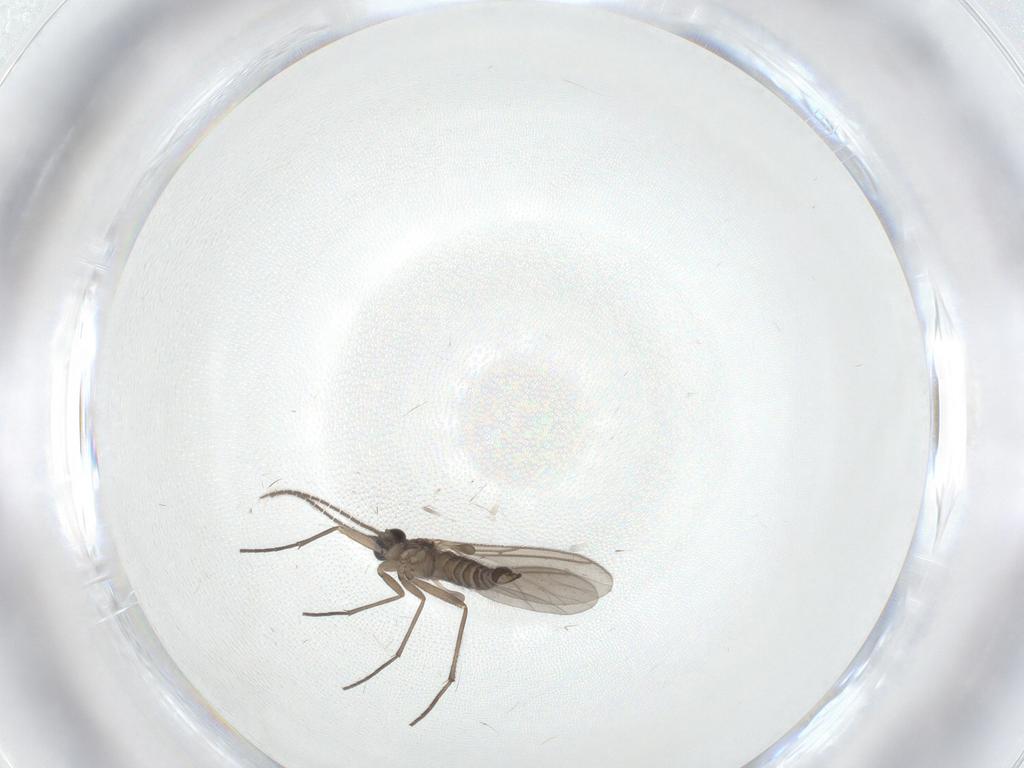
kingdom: Animalia
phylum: Arthropoda
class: Insecta
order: Diptera
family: Sciaridae
